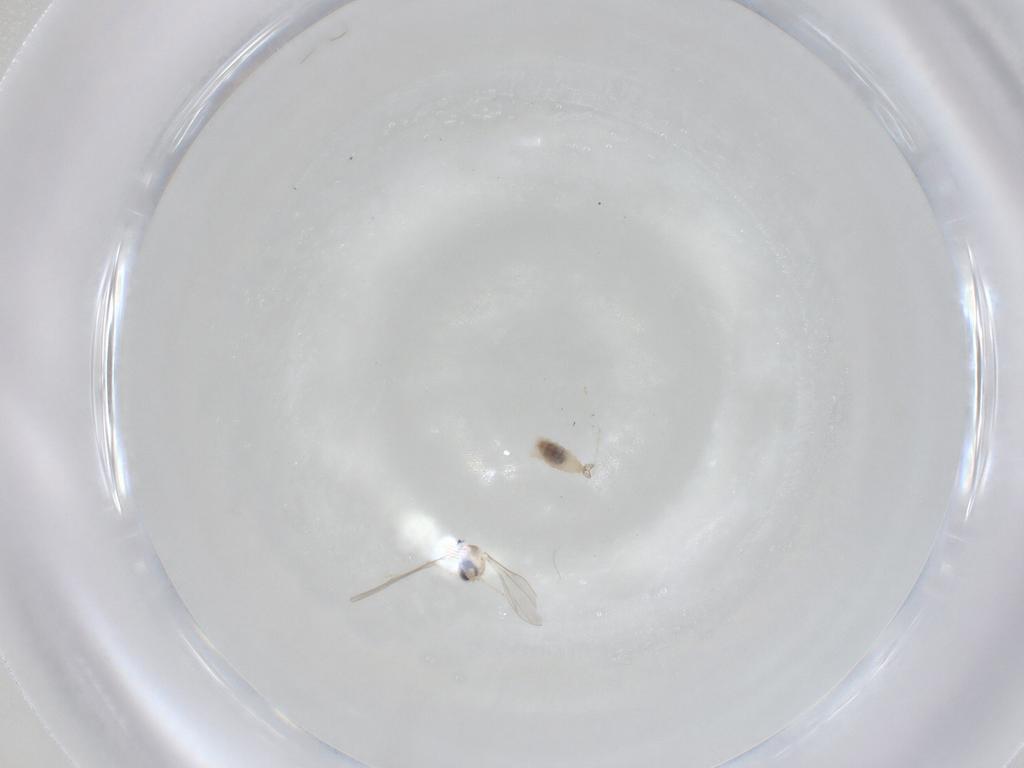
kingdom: Animalia
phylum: Arthropoda
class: Insecta
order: Diptera
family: Cecidomyiidae
